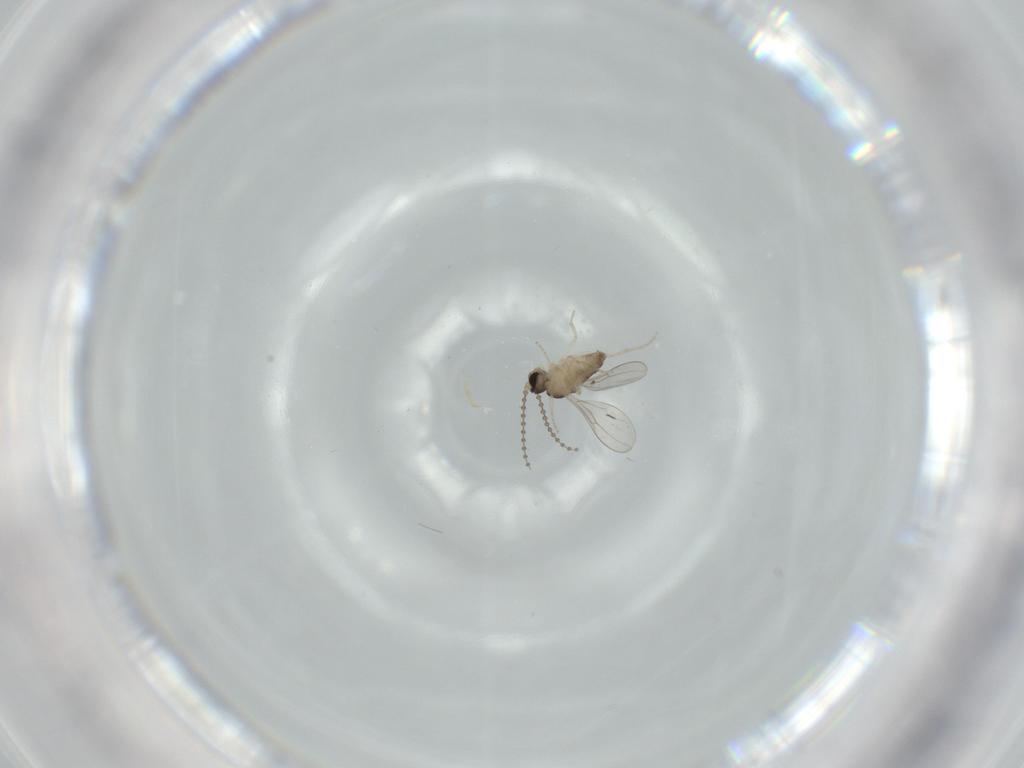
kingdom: Animalia
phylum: Arthropoda
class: Insecta
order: Diptera
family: Cecidomyiidae
